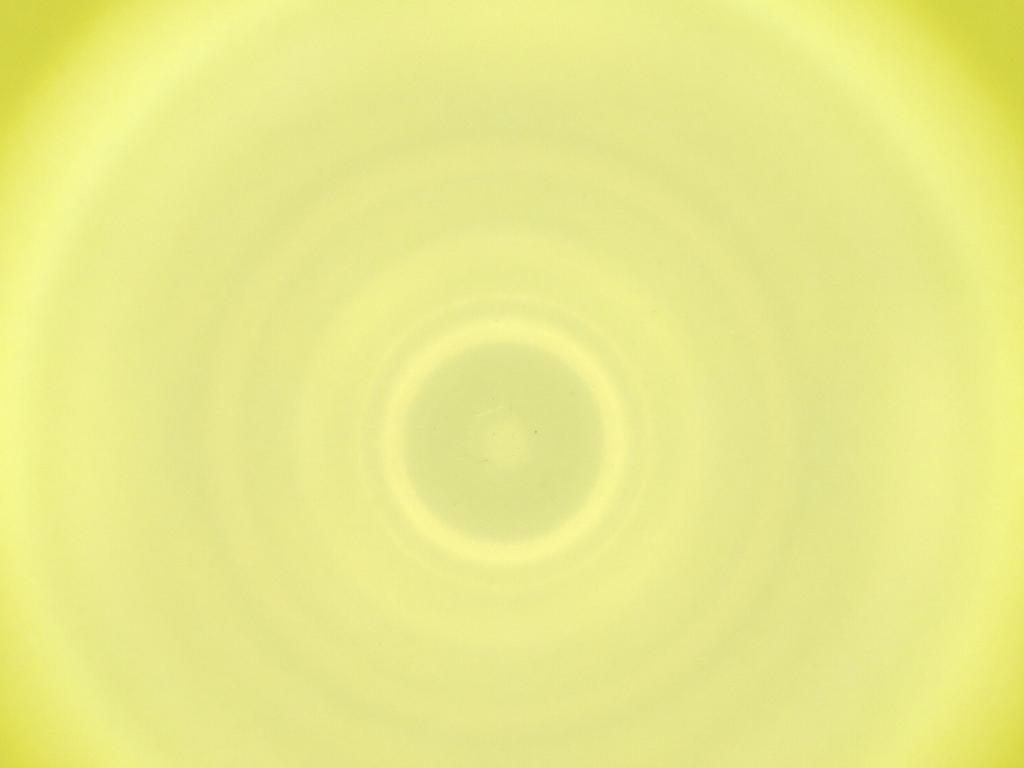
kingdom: Animalia
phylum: Arthropoda
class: Insecta
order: Diptera
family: Cecidomyiidae
